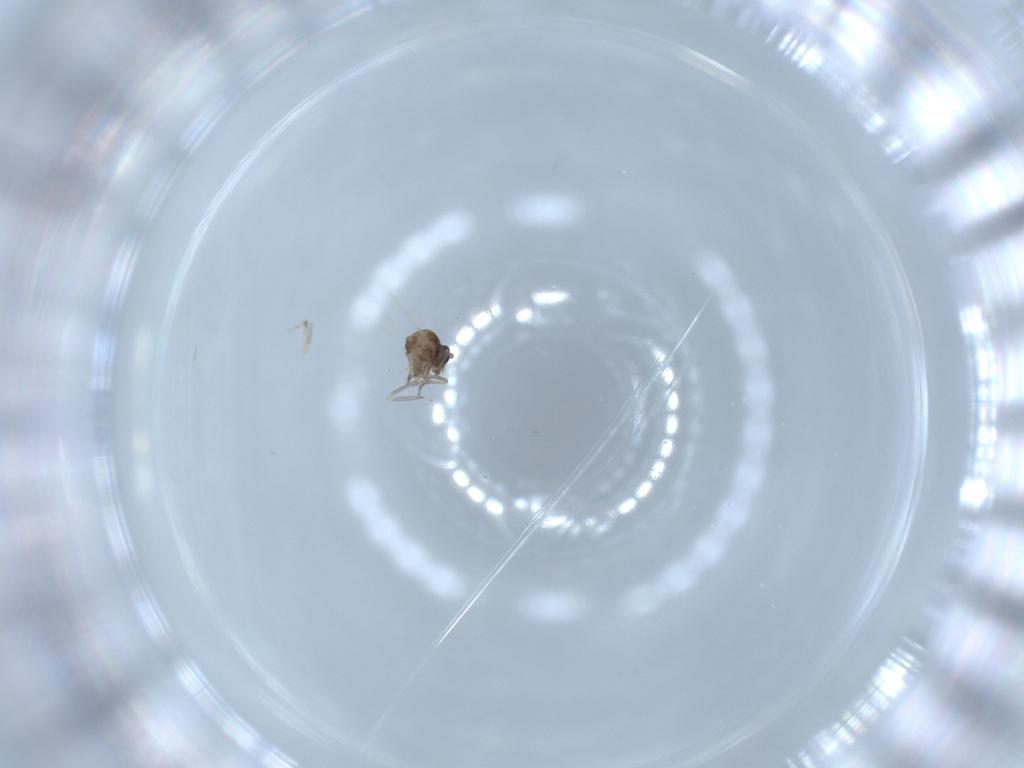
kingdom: Animalia
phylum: Arthropoda
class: Insecta
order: Diptera
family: Ceratopogonidae
